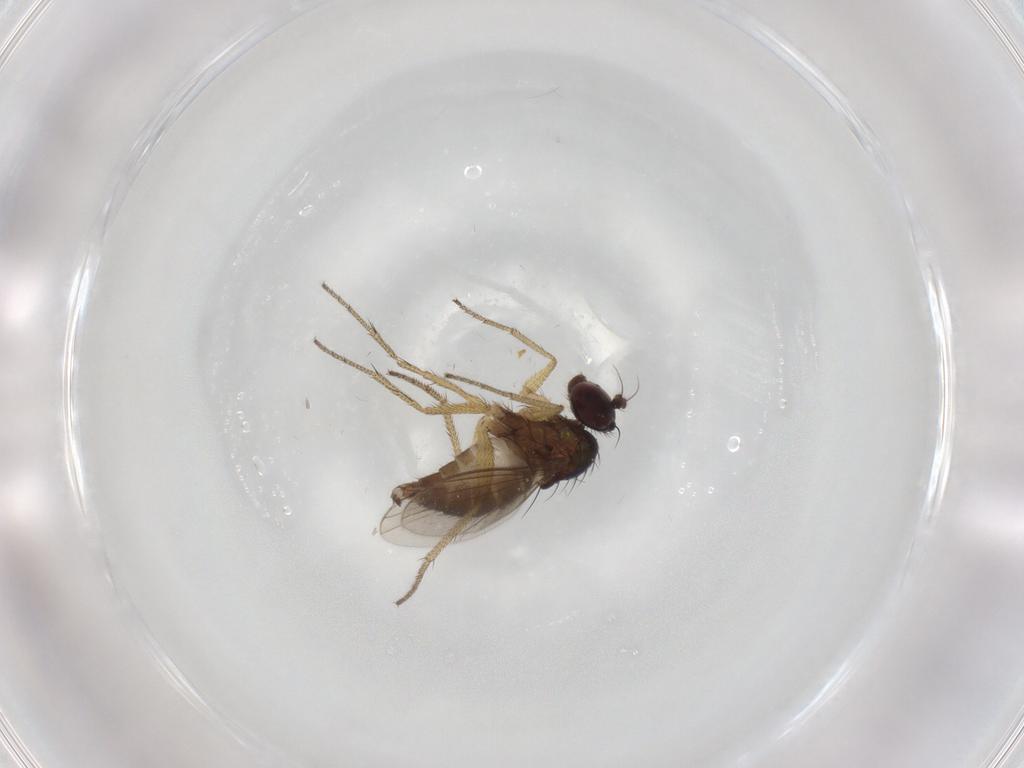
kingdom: Animalia
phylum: Arthropoda
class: Insecta
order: Diptera
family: Dolichopodidae
